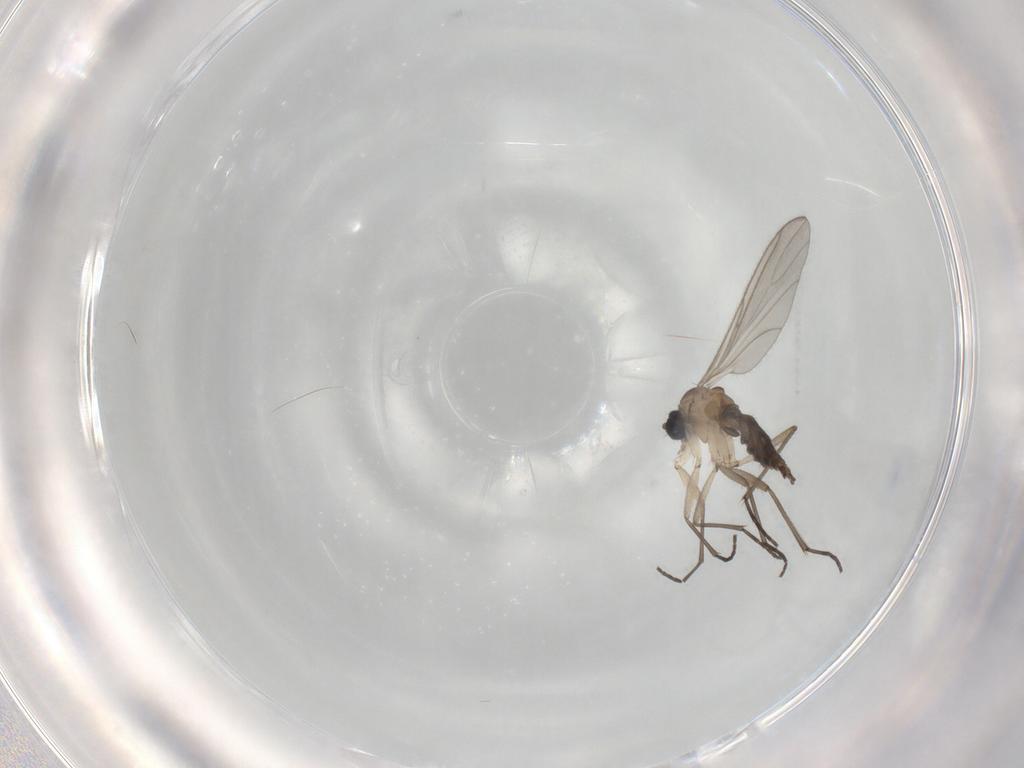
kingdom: Animalia
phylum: Arthropoda
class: Insecta
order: Diptera
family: Sciaridae
